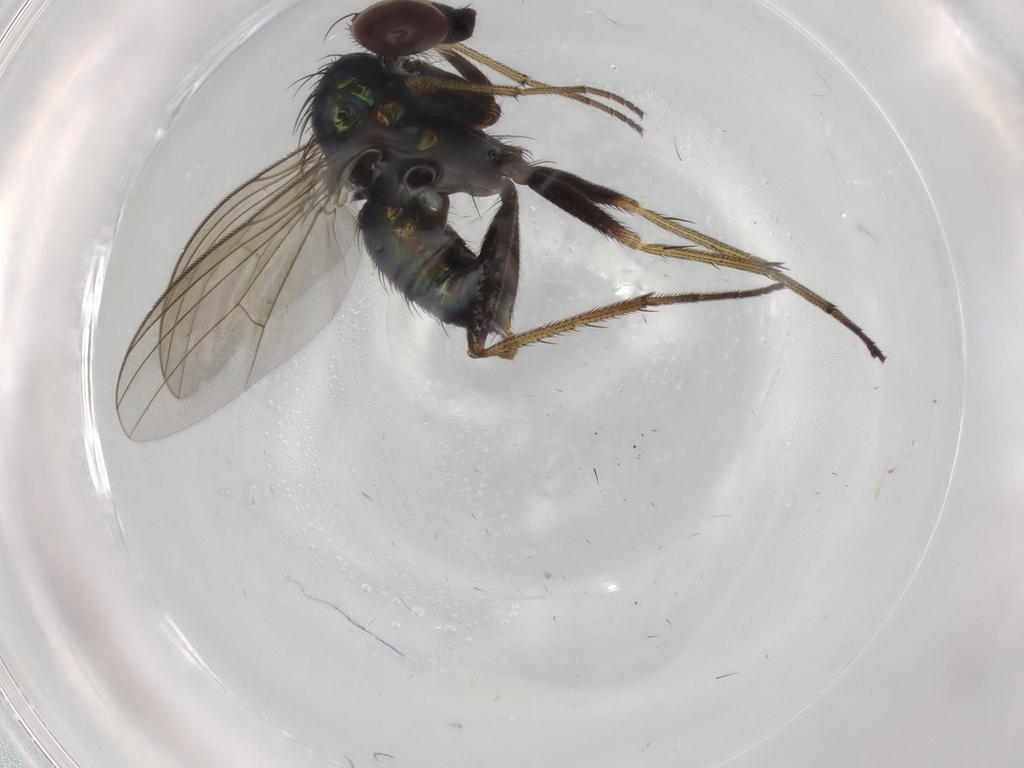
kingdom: Animalia
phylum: Arthropoda
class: Insecta
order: Diptera
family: Dolichopodidae
